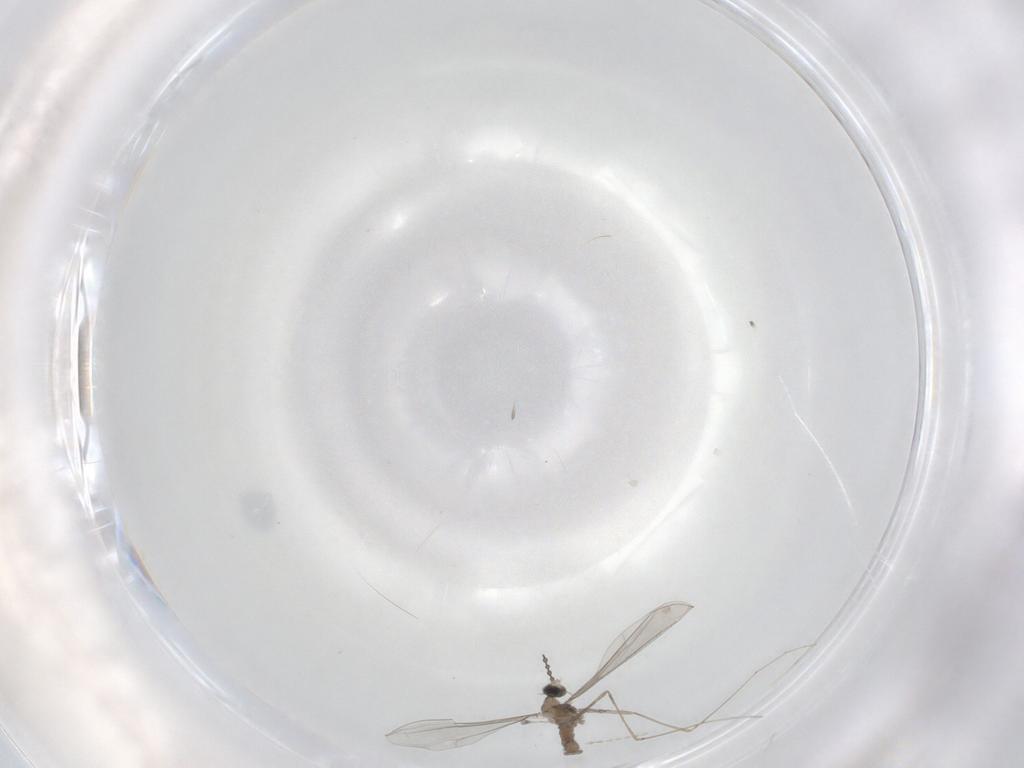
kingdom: Animalia
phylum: Arthropoda
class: Insecta
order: Diptera
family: Cecidomyiidae
